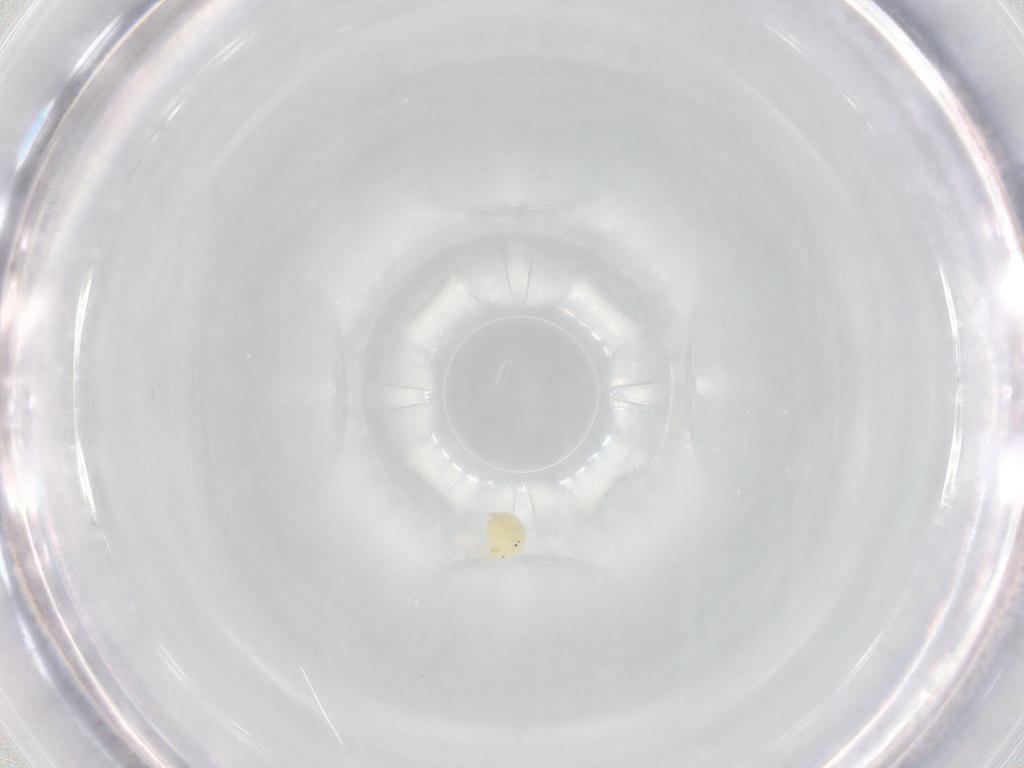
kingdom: Animalia
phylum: Arthropoda
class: Arachnida
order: Trombidiformes
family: Hydryphantidae
